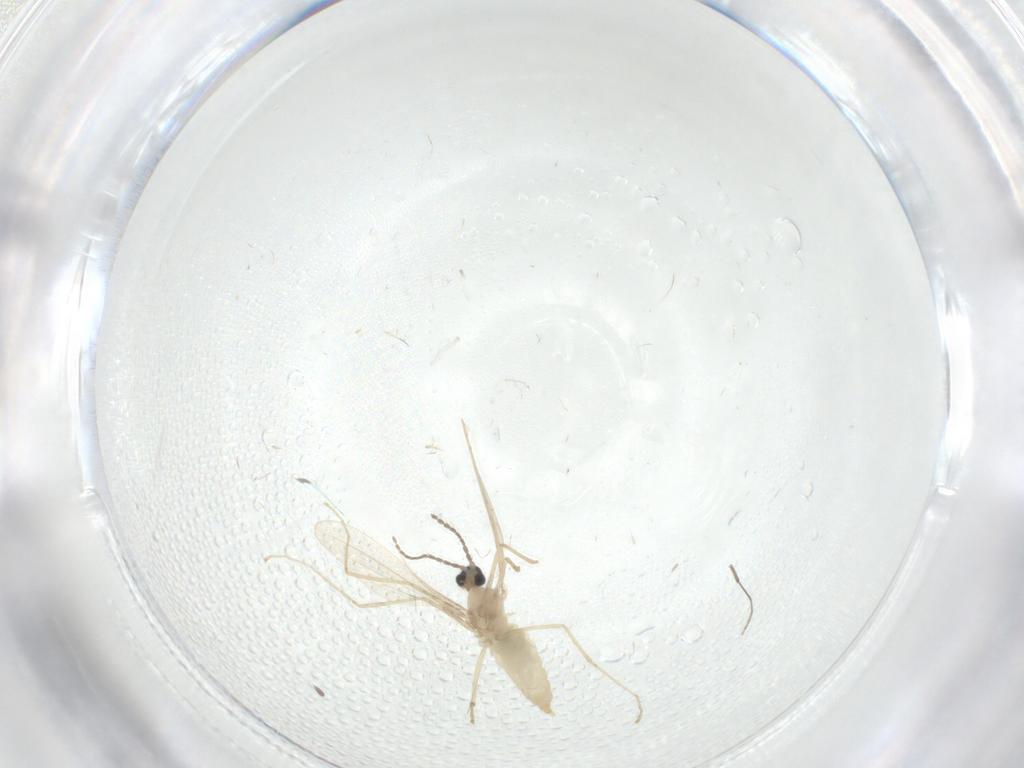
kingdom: Animalia
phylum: Arthropoda
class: Insecta
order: Diptera
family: Cecidomyiidae
